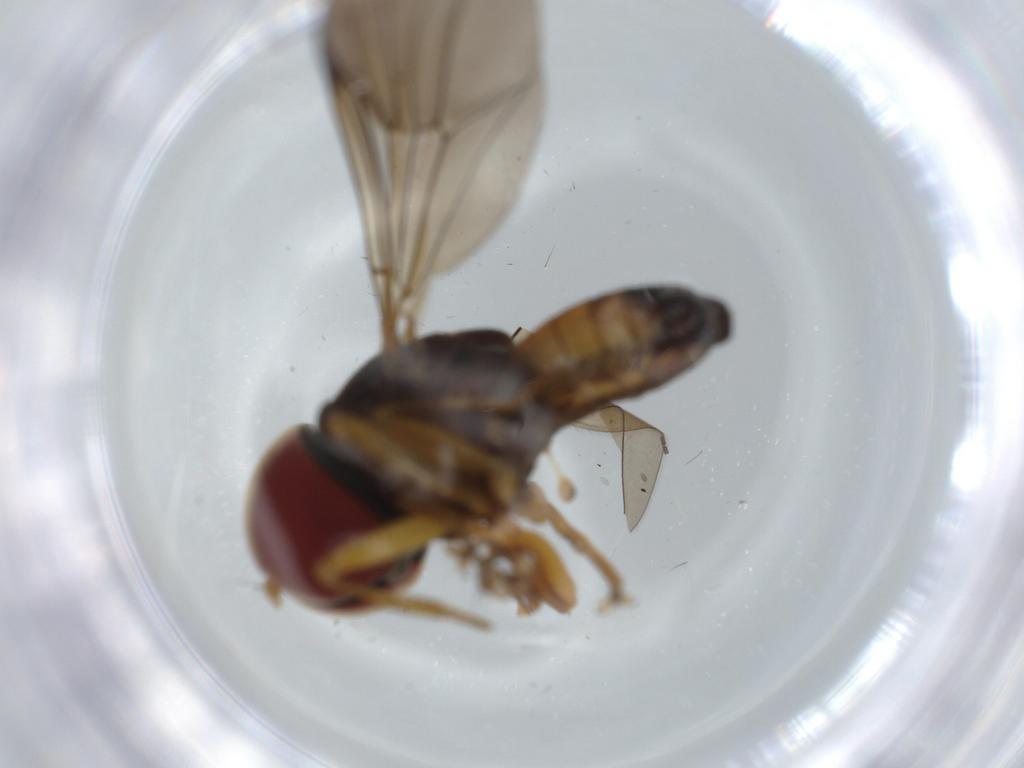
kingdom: Animalia
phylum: Arthropoda
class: Insecta
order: Diptera
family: Pipunculidae
